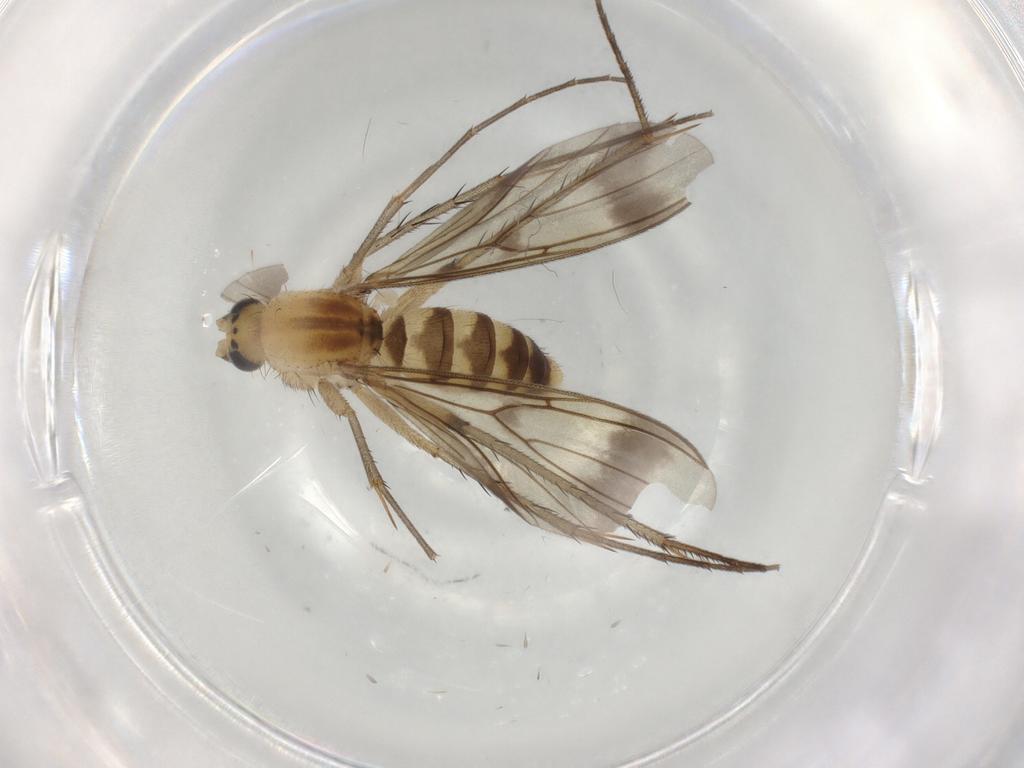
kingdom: Animalia
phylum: Arthropoda
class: Insecta
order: Diptera
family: Mycetophilidae
